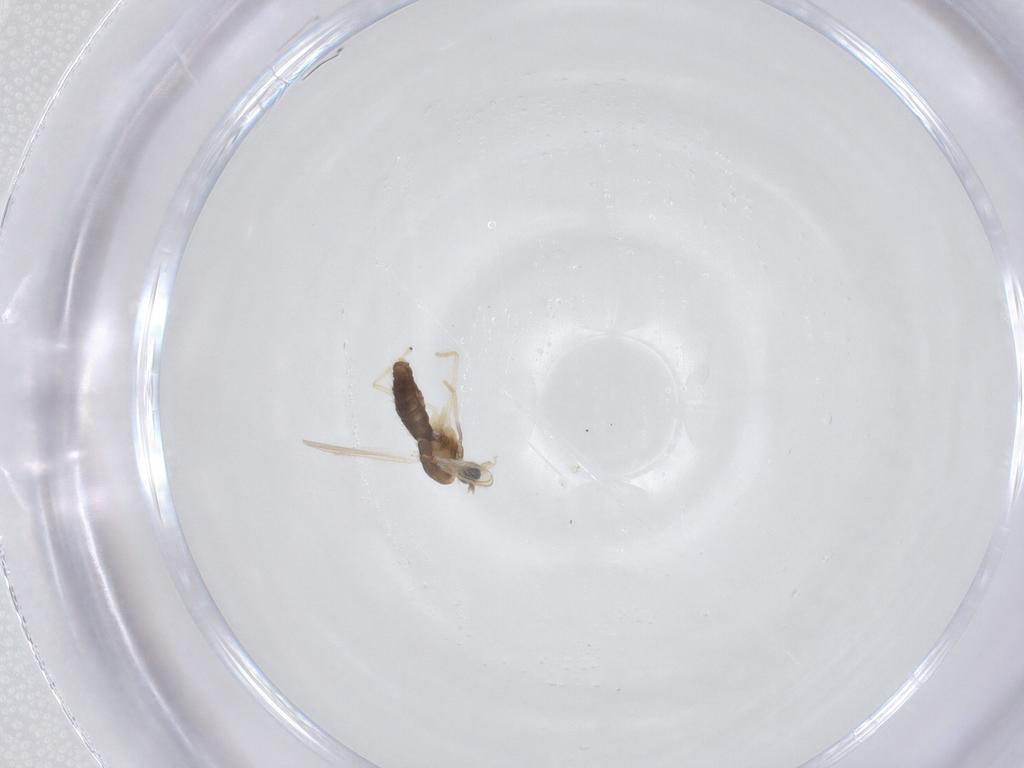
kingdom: Animalia
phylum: Arthropoda
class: Insecta
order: Diptera
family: Chironomidae
